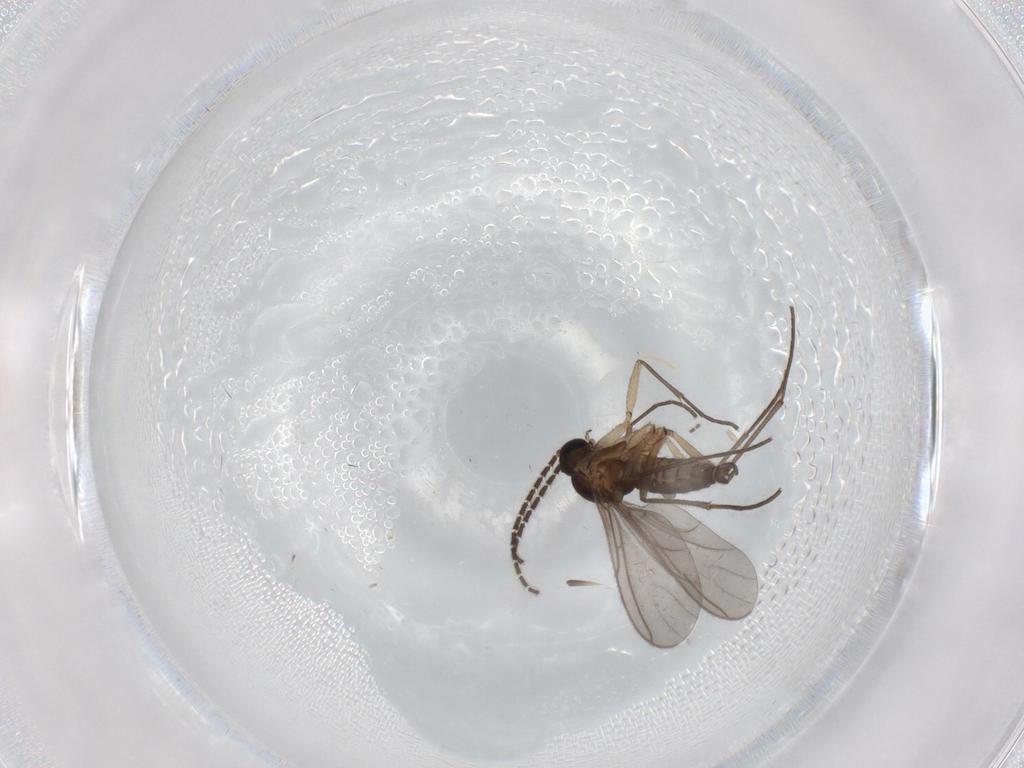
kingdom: Animalia
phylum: Arthropoda
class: Insecta
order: Diptera
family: Sciaridae
